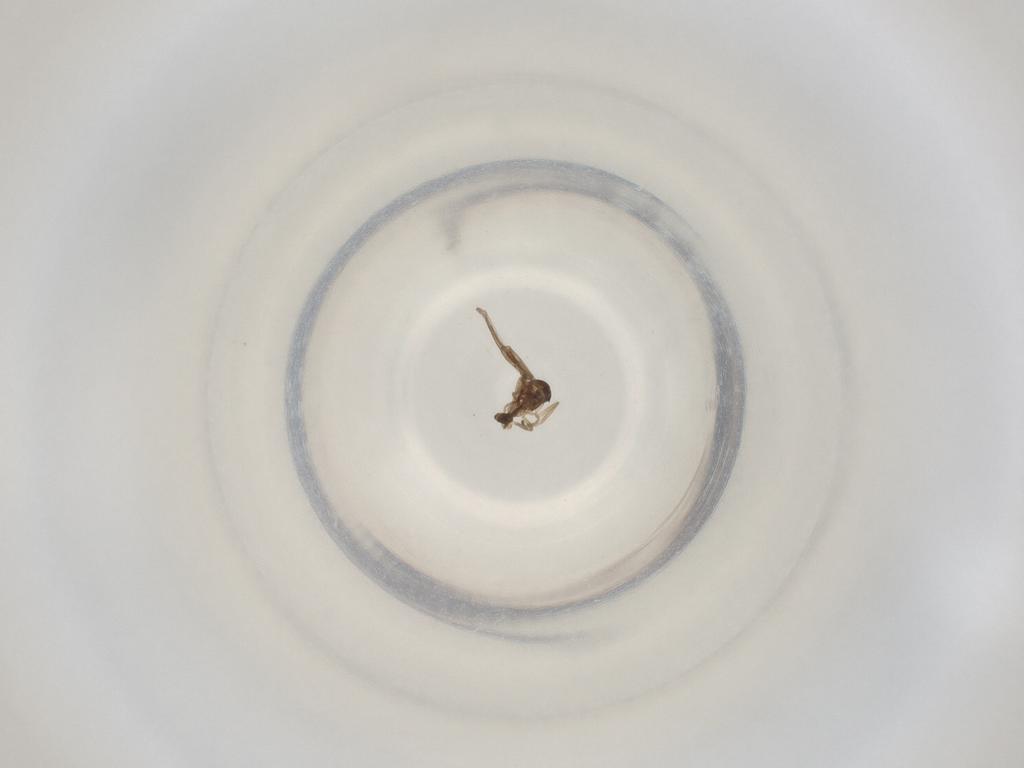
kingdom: Animalia
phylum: Arthropoda
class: Insecta
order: Diptera
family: Cecidomyiidae
